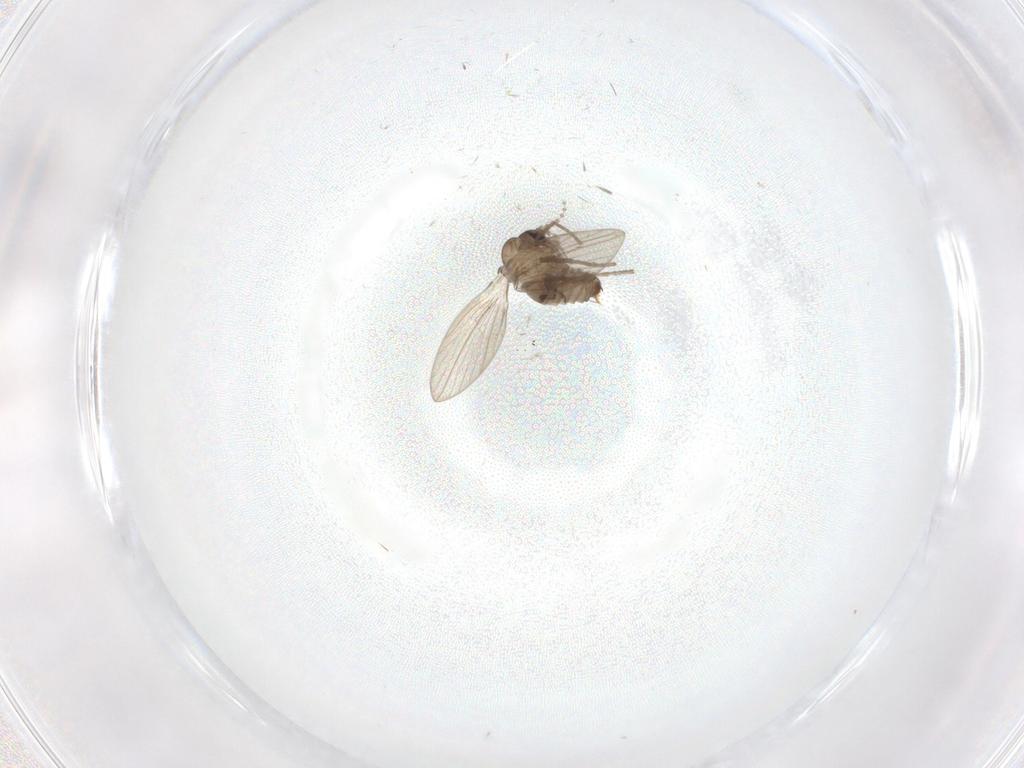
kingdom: Animalia
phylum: Arthropoda
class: Insecta
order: Diptera
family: Psychodidae
